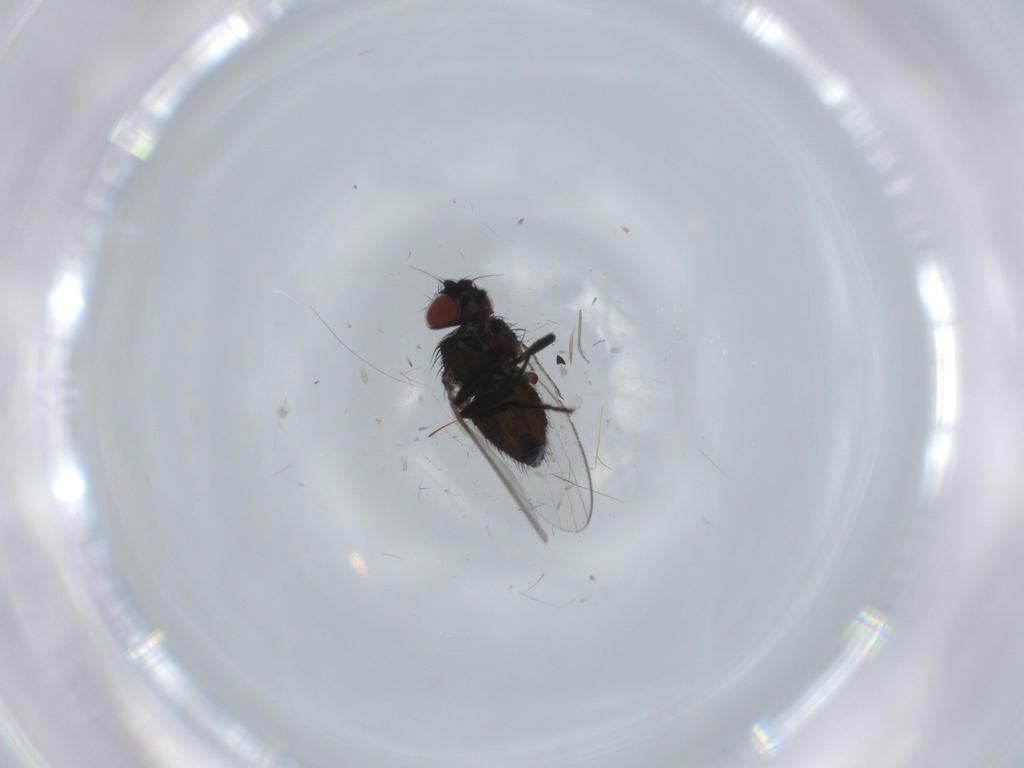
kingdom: Animalia
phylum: Arthropoda
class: Insecta
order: Diptera
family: Milichiidae
